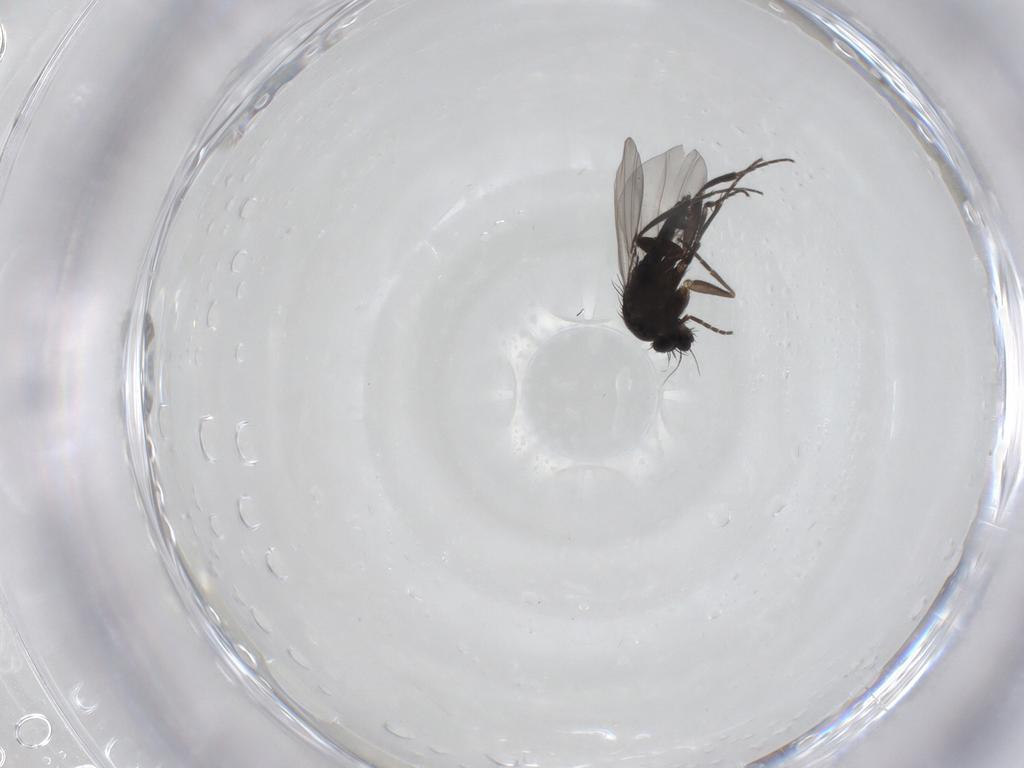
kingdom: Animalia
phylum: Arthropoda
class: Insecta
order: Diptera
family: Phoridae
